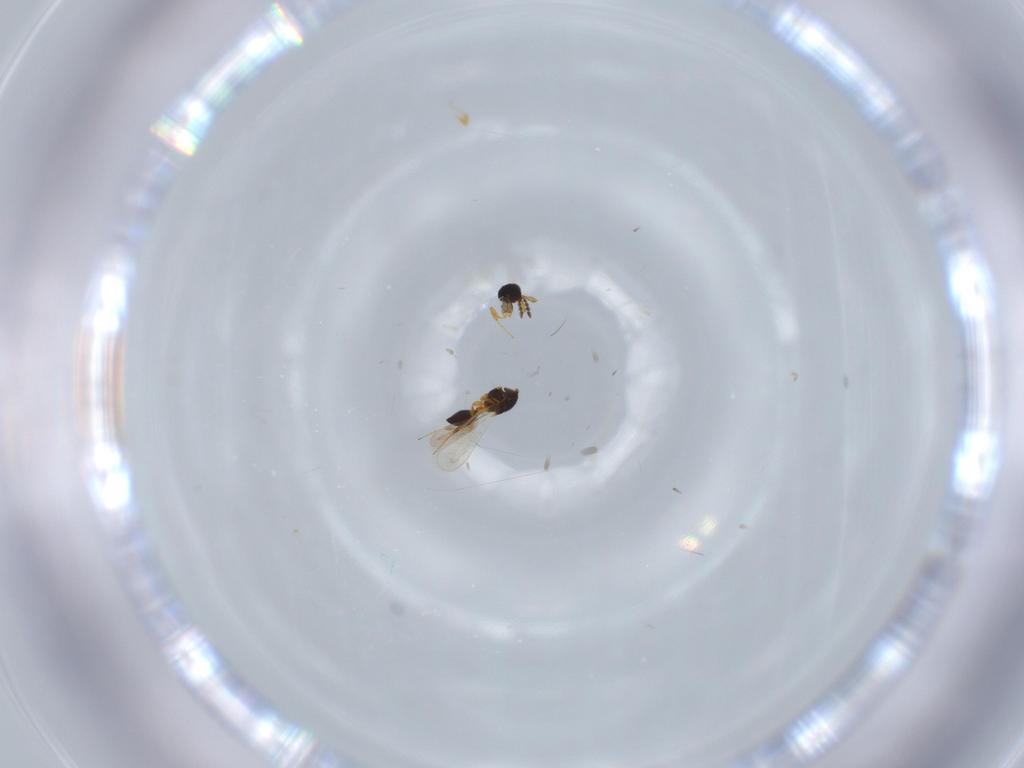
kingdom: Animalia
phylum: Arthropoda
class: Insecta
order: Hymenoptera
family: Platygastridae
